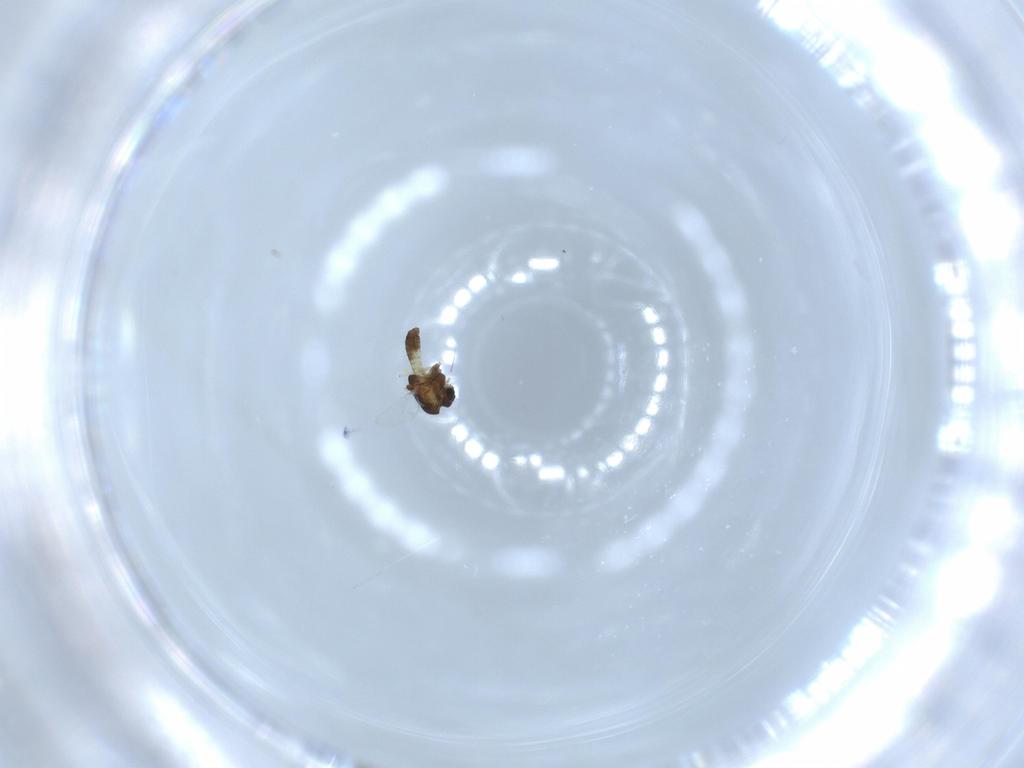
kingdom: Animalia
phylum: Arthropoda
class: Insecta
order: Diptera
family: Chironomidae
